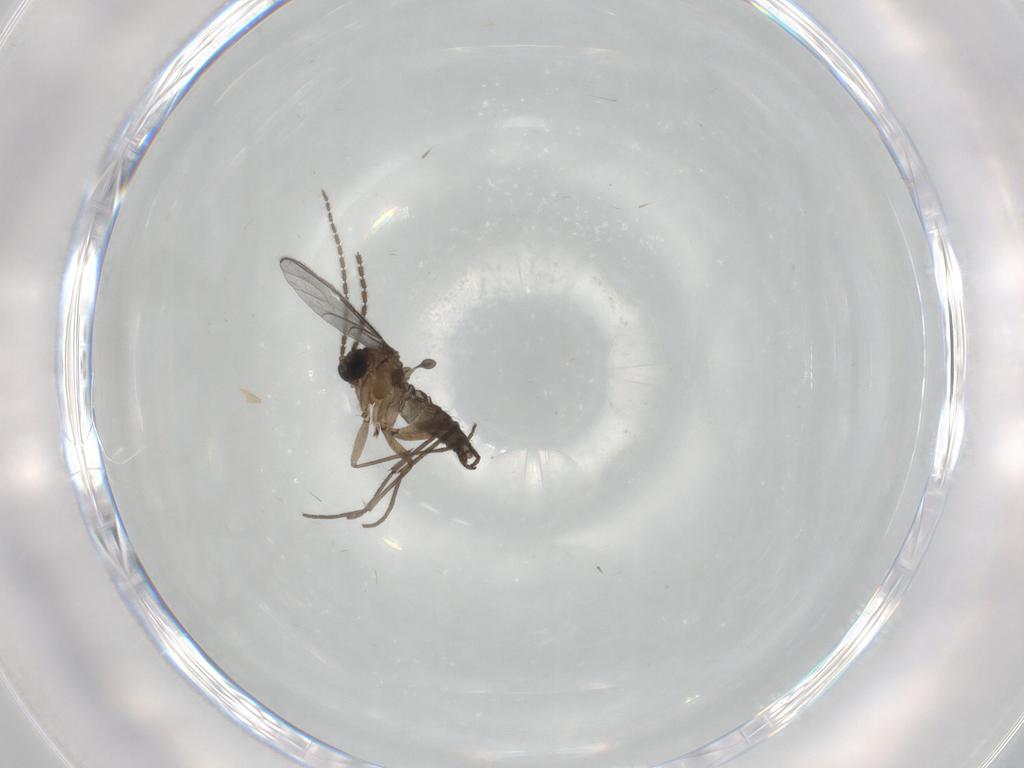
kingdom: Animalia
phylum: Arthropoda
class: Insecta
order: Diptera
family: Sciaridae
